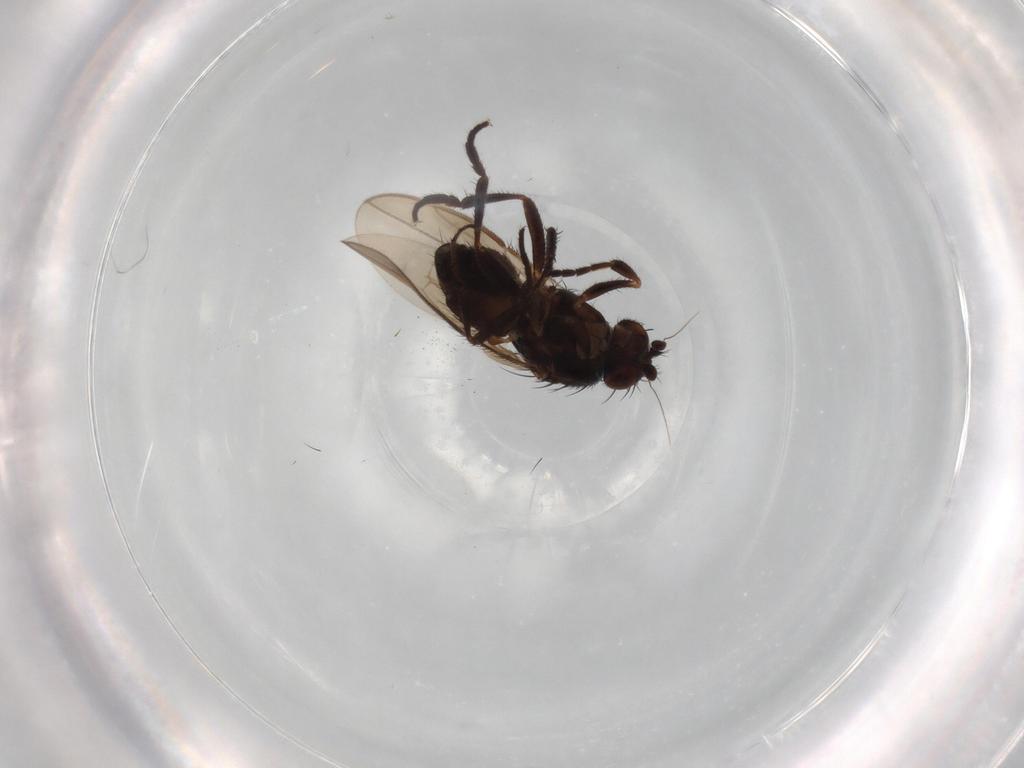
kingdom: Animalia
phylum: Arthropoda
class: Insecta
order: Diptera
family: Sphaeroceridae
